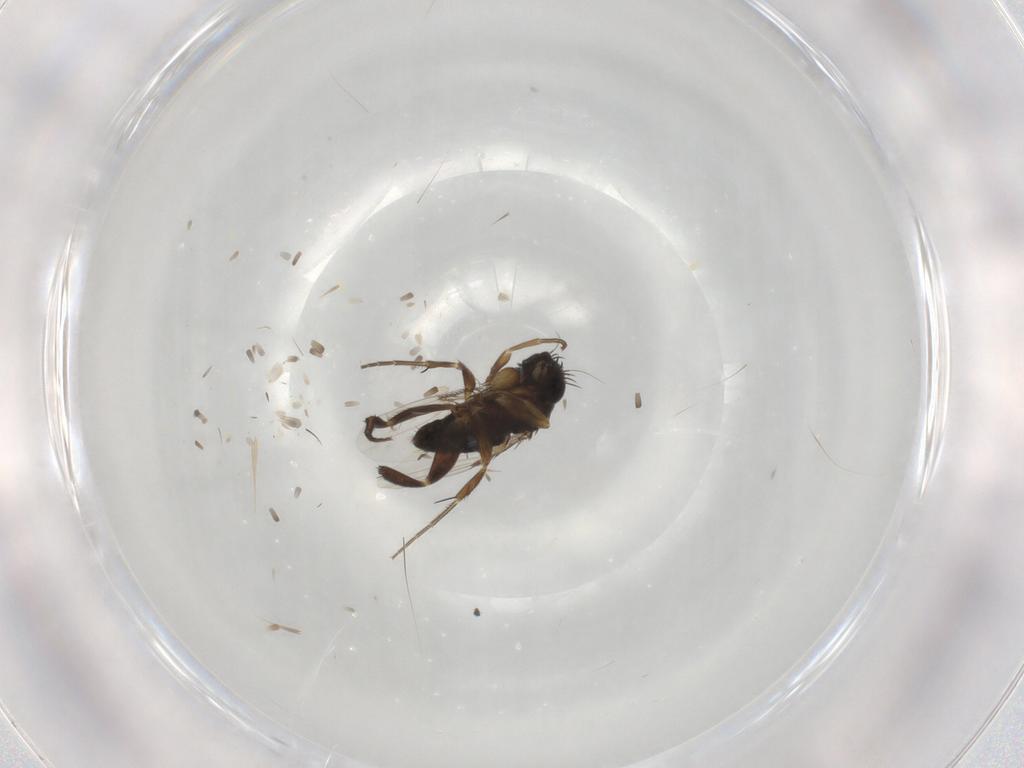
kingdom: Animalia
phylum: Arthropoda
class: Insecta
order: Diptera
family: Phoridae
